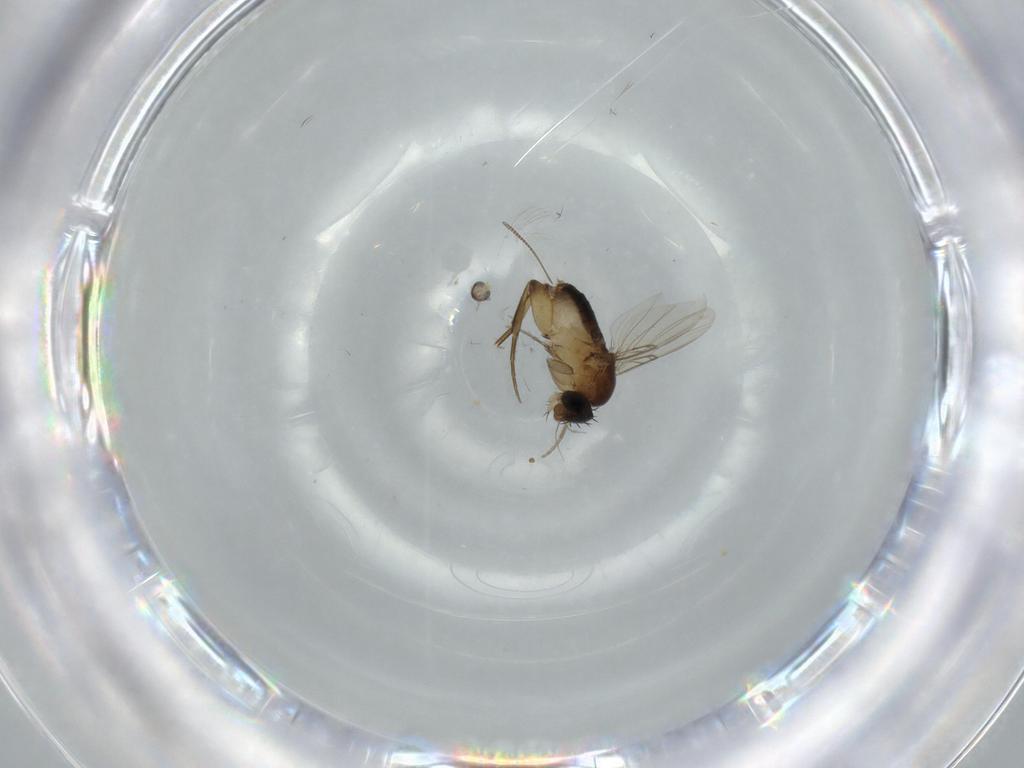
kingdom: Animalia
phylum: Arthropoda
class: Insecta
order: Diptera
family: Phoridae
